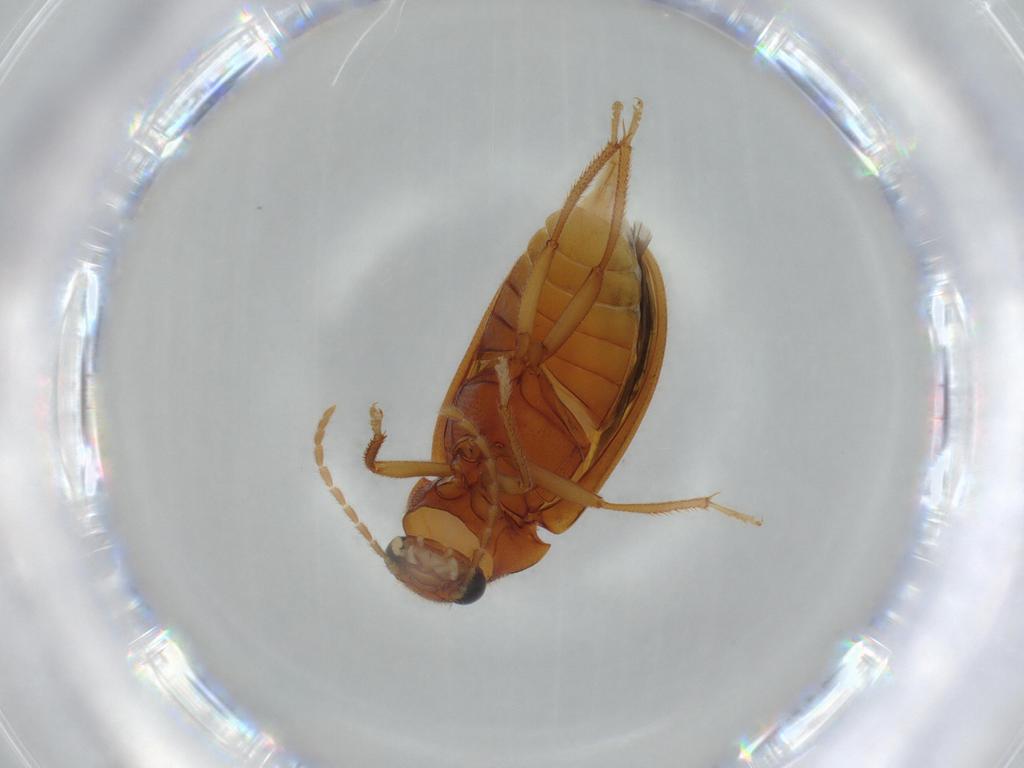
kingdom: Animalia
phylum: Arthropoda
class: Insecta
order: Coleoptera
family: Ptilodactylidae
